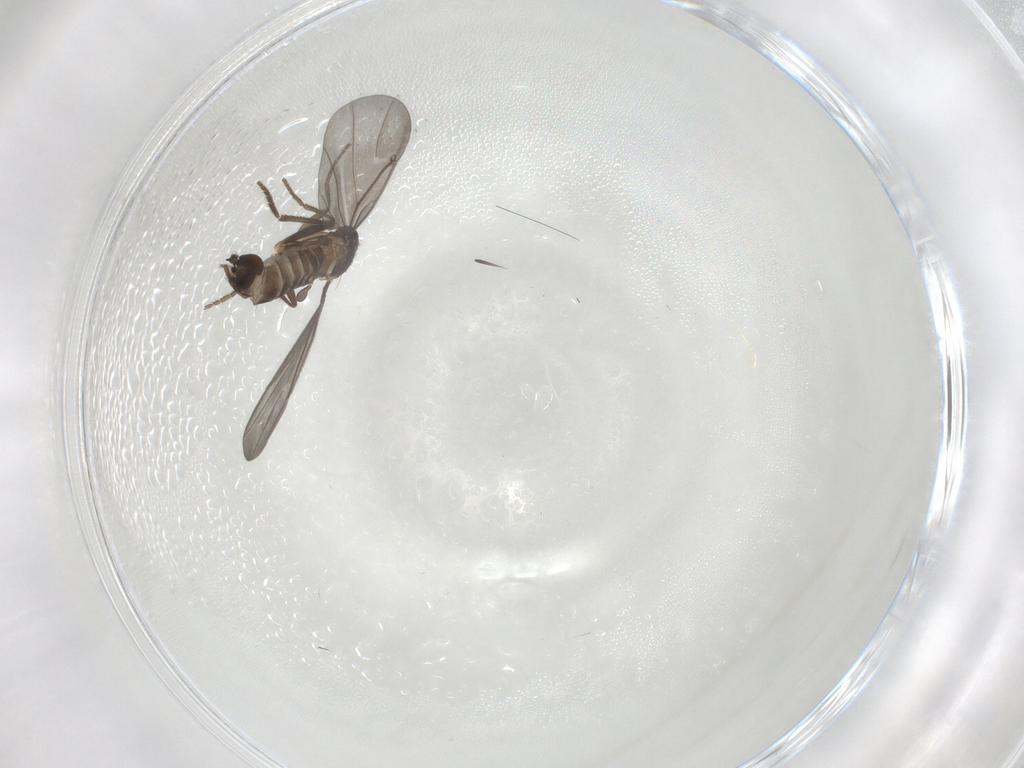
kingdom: Animalia
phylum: Arthropoda
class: Insecta
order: Diptera
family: Phoridae
